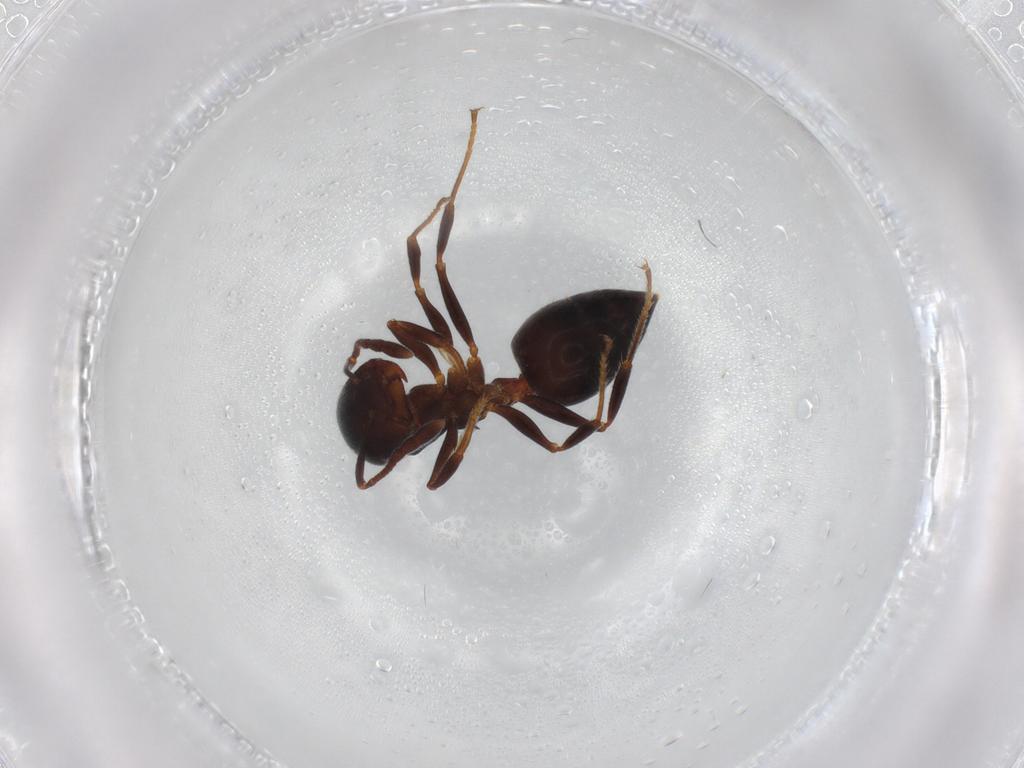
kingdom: Animalia
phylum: Arthropoda
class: Insecta
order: Hymenoptera
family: Formicidae
